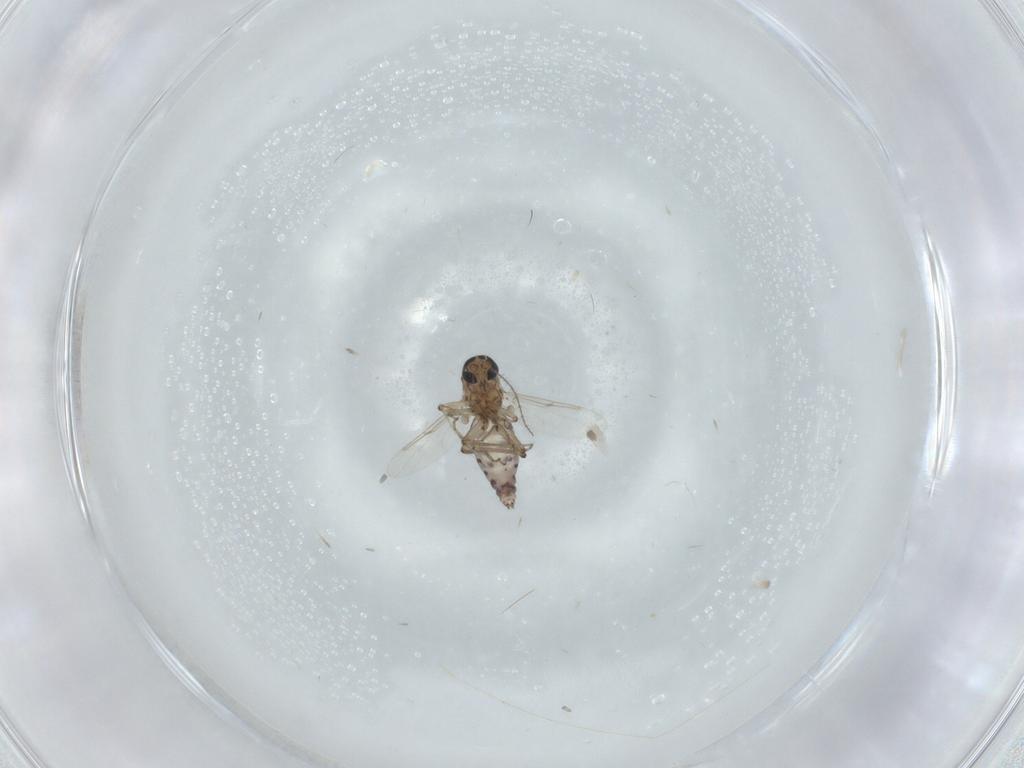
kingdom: Animalia
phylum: Arthropoda
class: Insecta
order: Diptera
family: Ceratopogonidae
